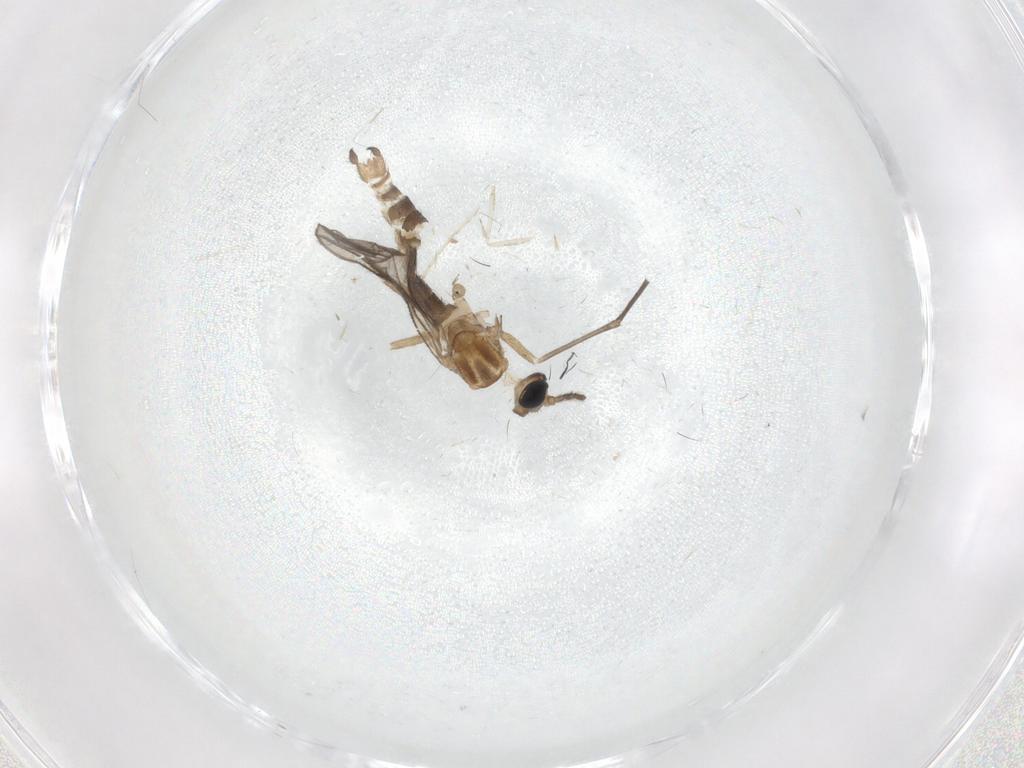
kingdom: Animalia
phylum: Arthropoda
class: Insecta
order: Diptera
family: Sciaridae
